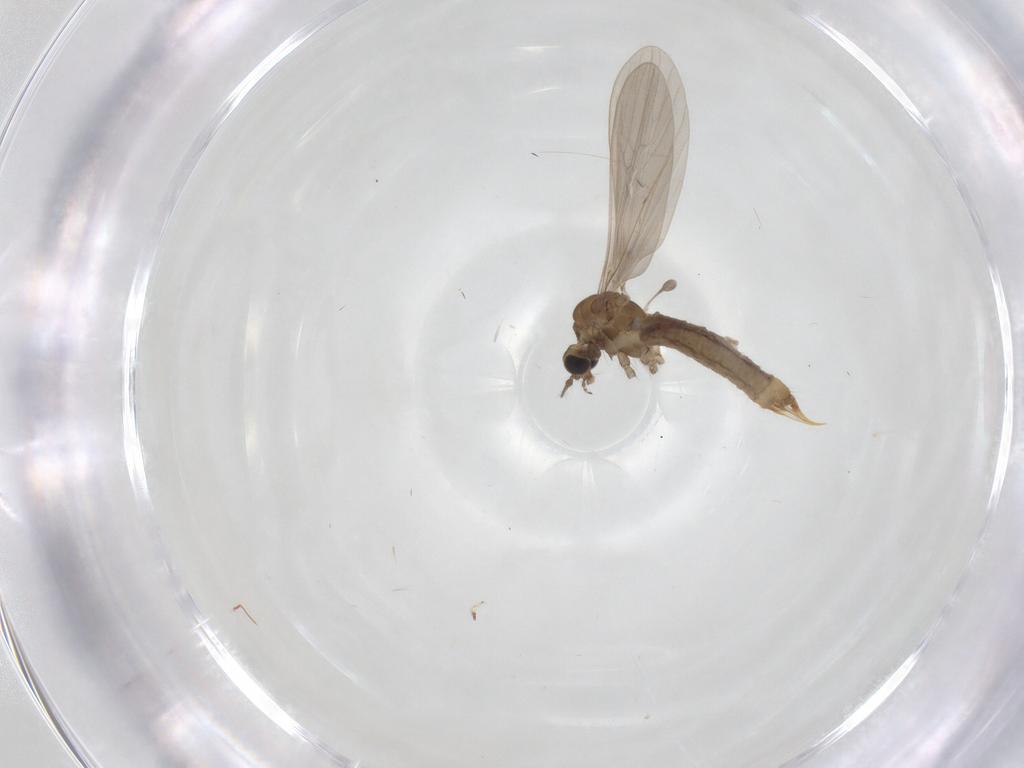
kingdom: Animalia
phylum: Arthropoda
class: Insecta
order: Diptera
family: Limoniidae
